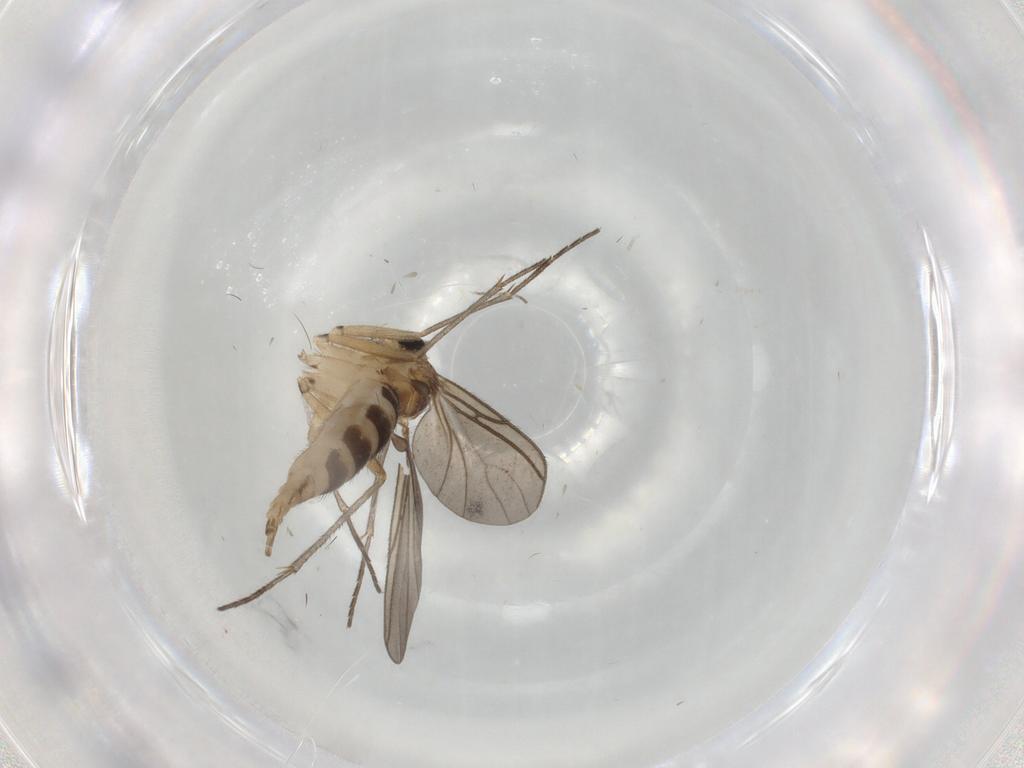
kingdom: Animalia
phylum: Arthropoda
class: Insecta
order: Diptera
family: Sciaridae
